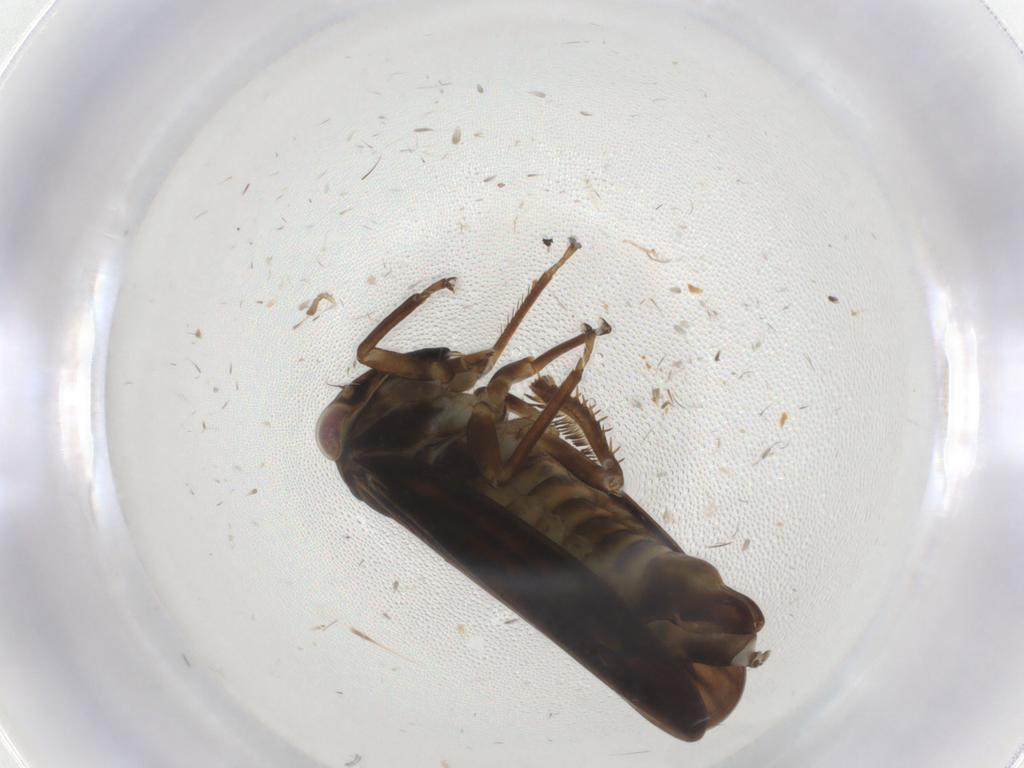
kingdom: Animalia
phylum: Arthropoda
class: Insecta
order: Hemiptera
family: Cicadellidae
